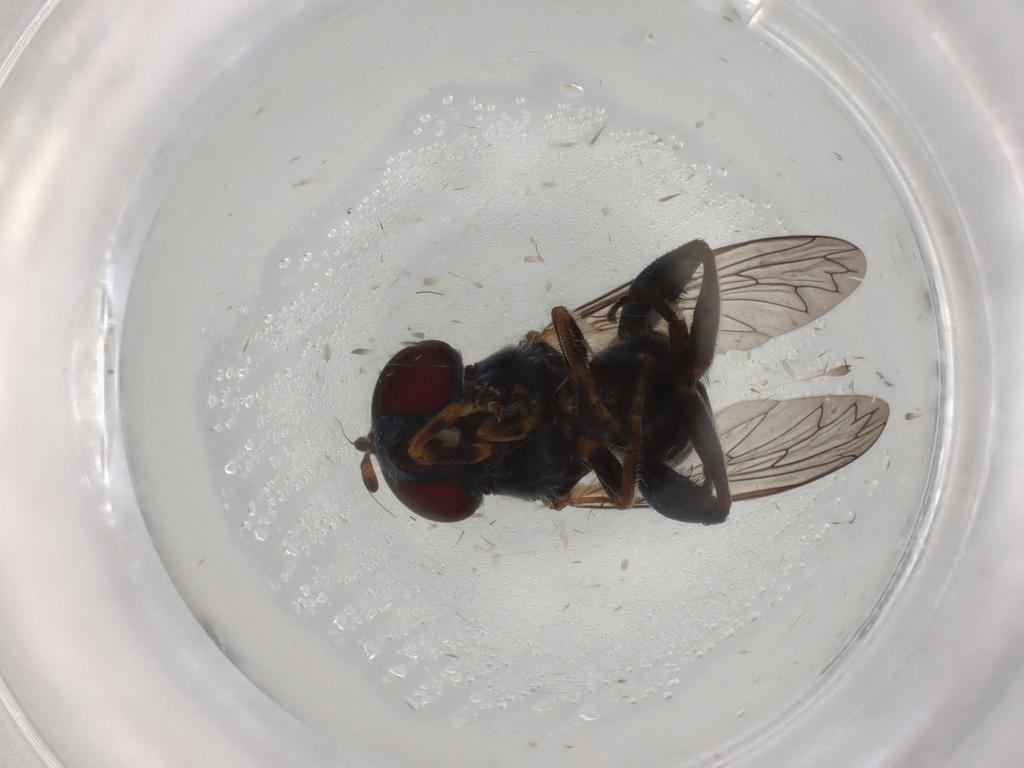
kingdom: Animalia
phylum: Arthropoda
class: Insecta
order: Diptera
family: Syrphidae
